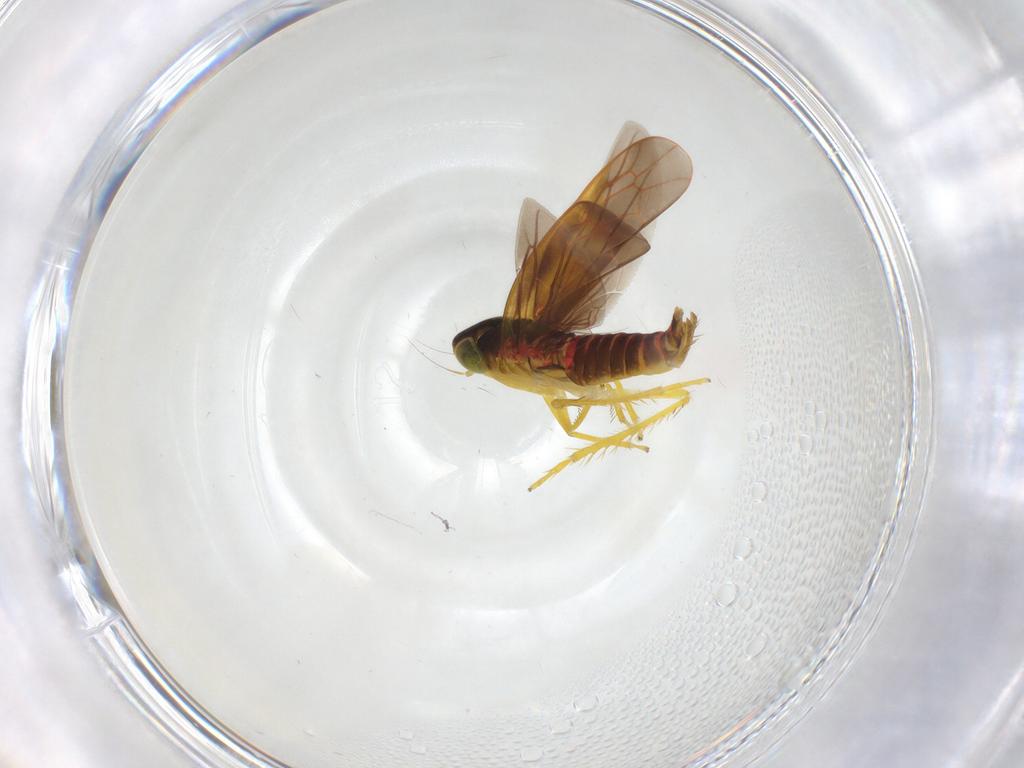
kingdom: Animalia
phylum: Arthropoda
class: Insecta
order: Hemiptera
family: Cicadellidae
